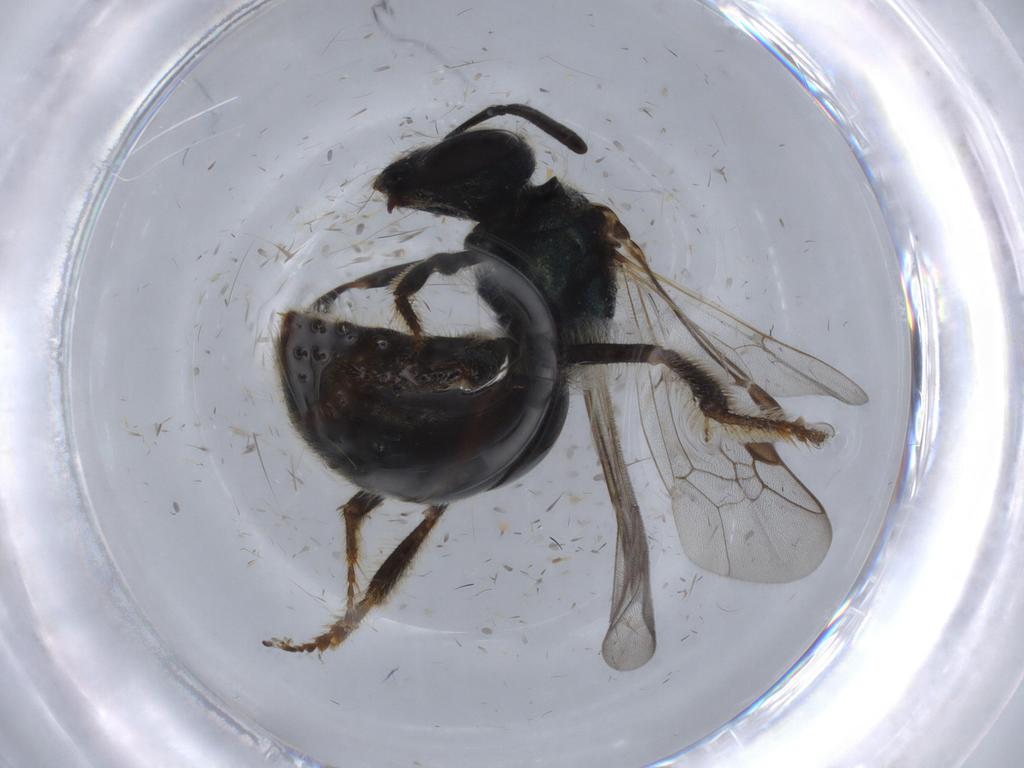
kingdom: Animalia
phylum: Arthropoda
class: Insecta
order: Hymenoptera
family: Halictidae
